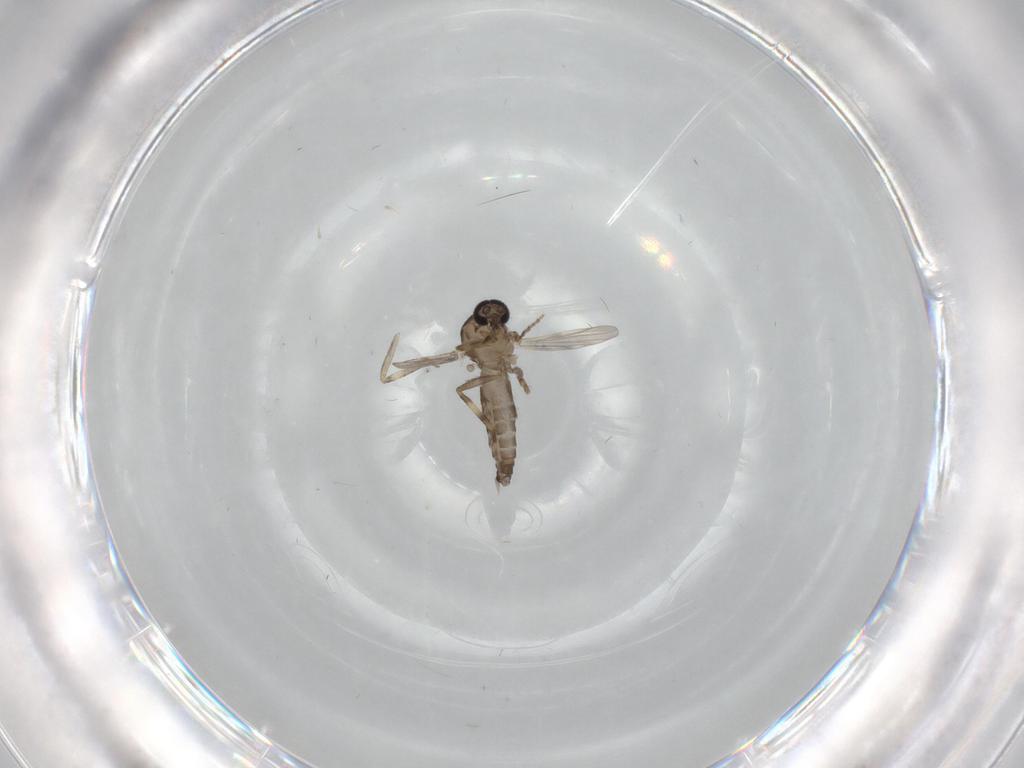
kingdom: Animalia
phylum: Arthropoda
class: Insecta
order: Diptera
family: Ceratopogonidae
